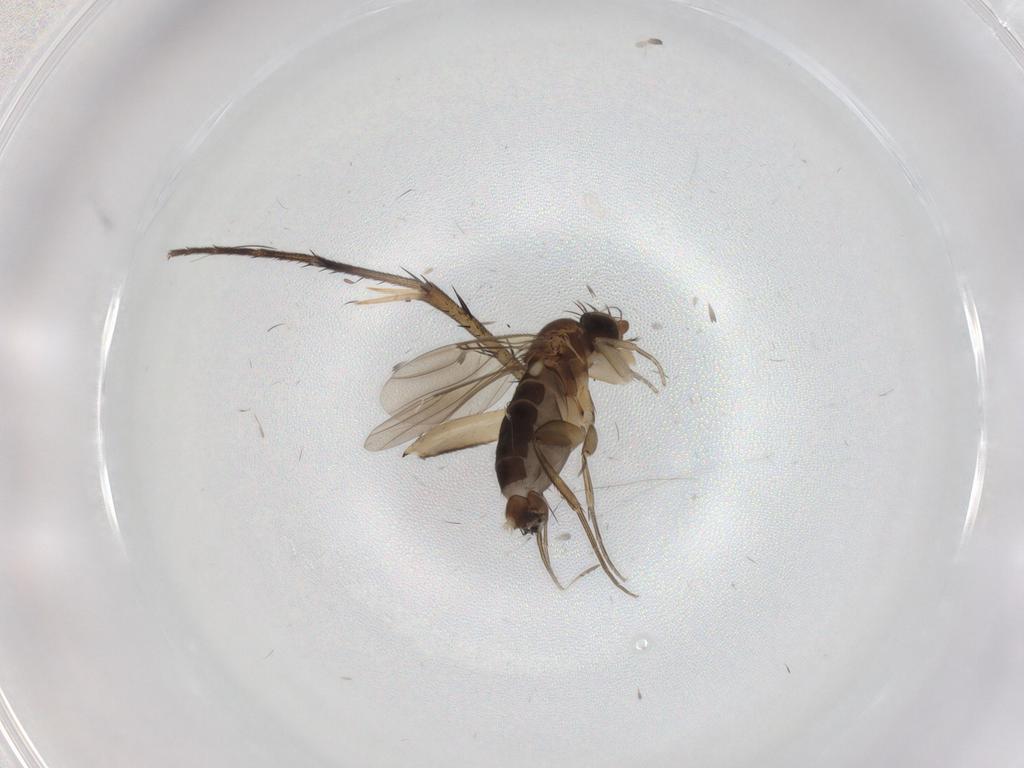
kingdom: Animalia
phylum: Arthropoda
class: Insecta
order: Diptera
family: Phoridae
